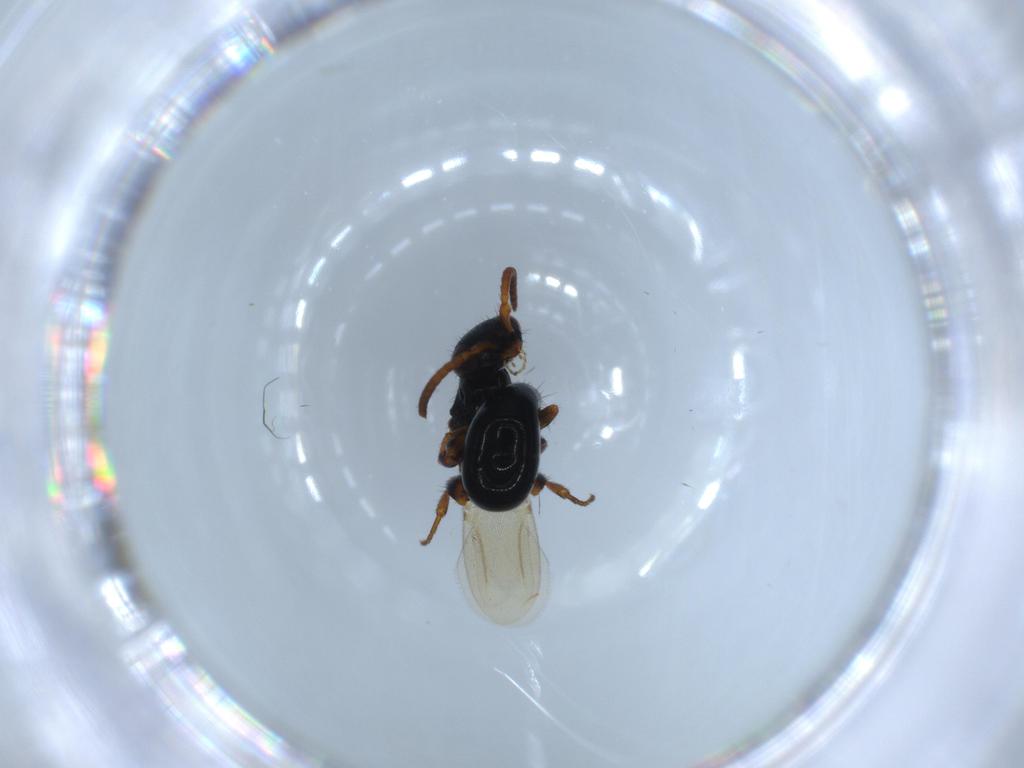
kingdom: Animalia
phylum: Arthropoda
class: Insecta
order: Hymenoptera
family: Bethylidae
